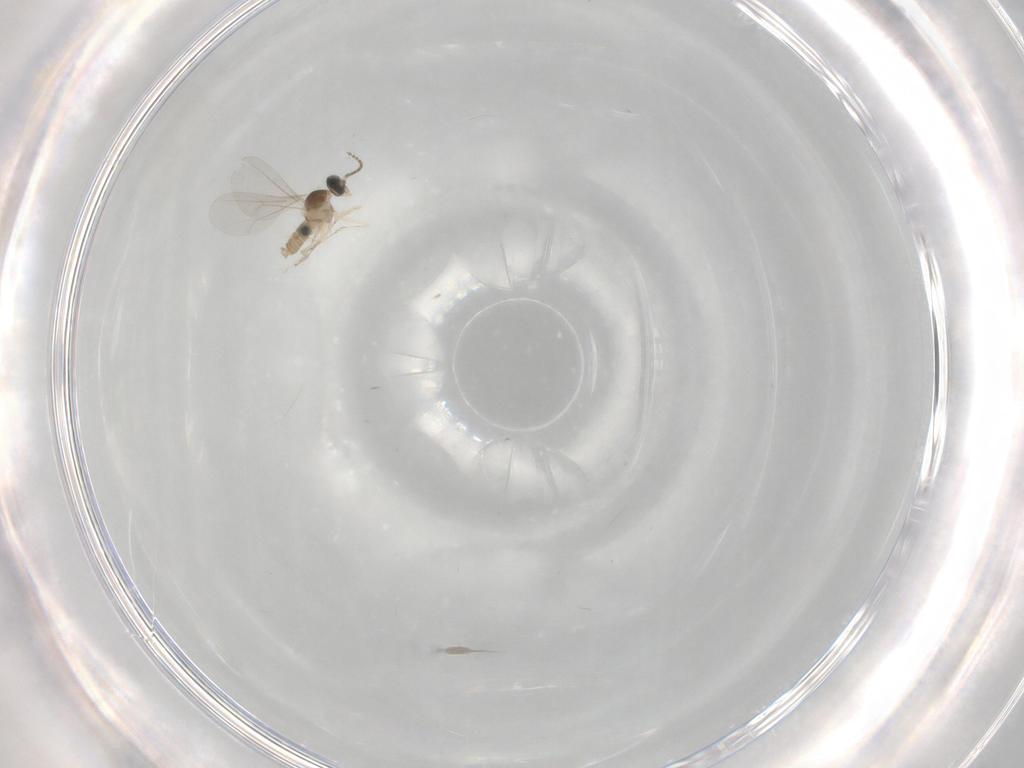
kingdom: Animalia
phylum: Arthropoda
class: Insecta
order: Diptera
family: Cecidomyiidae
